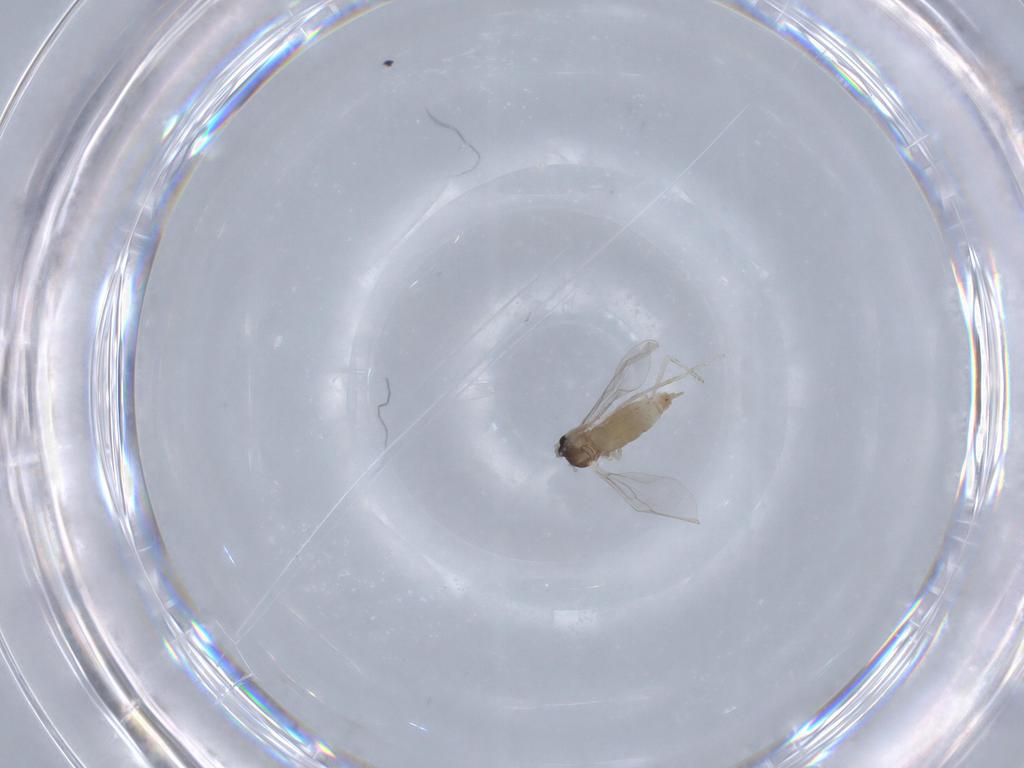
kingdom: Animalia
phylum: Arthropoda
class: Insecta
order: Diptera
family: Cecidomyiidae
